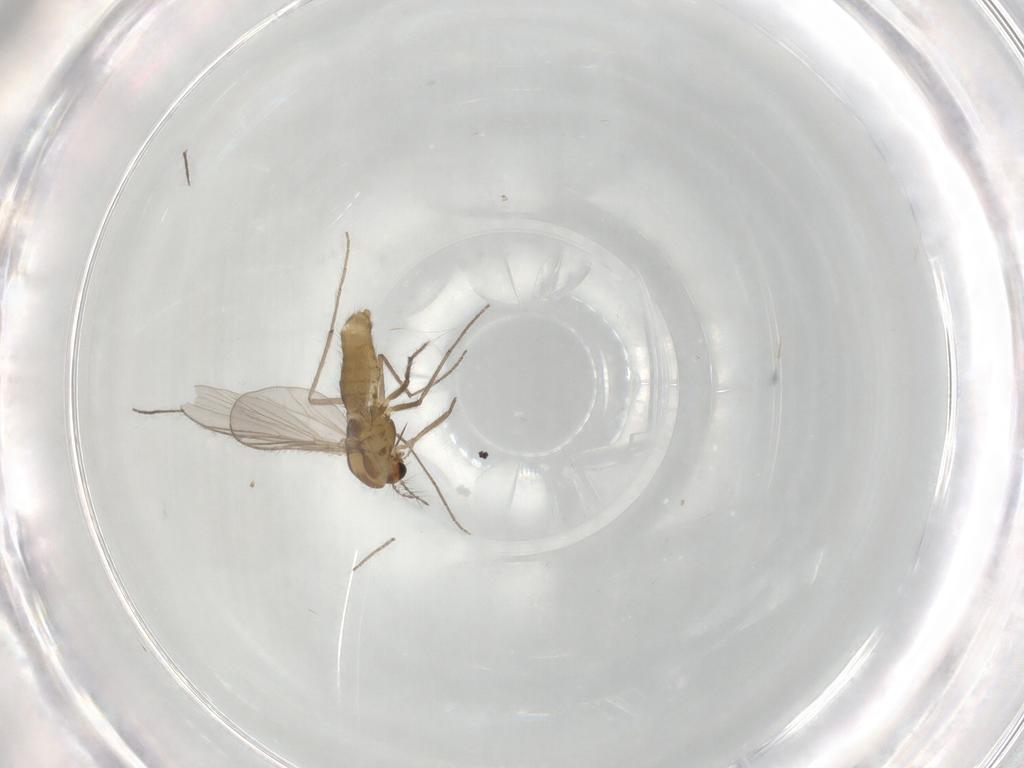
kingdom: Animalia
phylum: Arthropoda
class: Insecta
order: Diptera
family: Chironomidae
